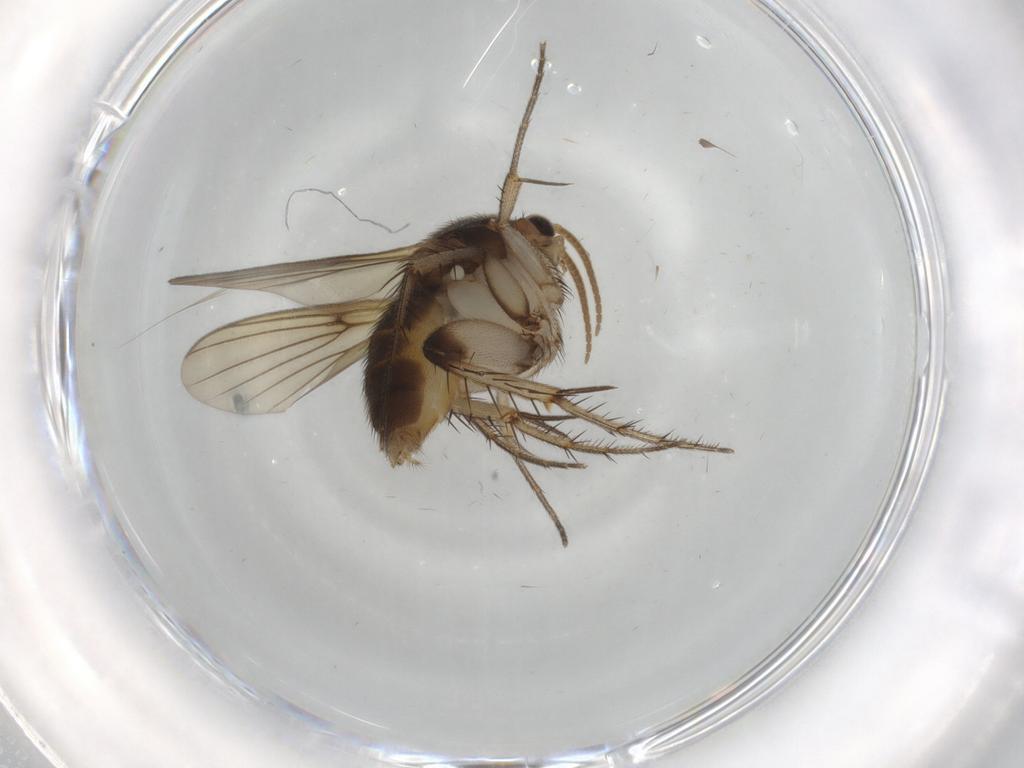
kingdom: Animalia
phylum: Arthropoda
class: Insecta
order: Diptera
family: Mycetophilidae
